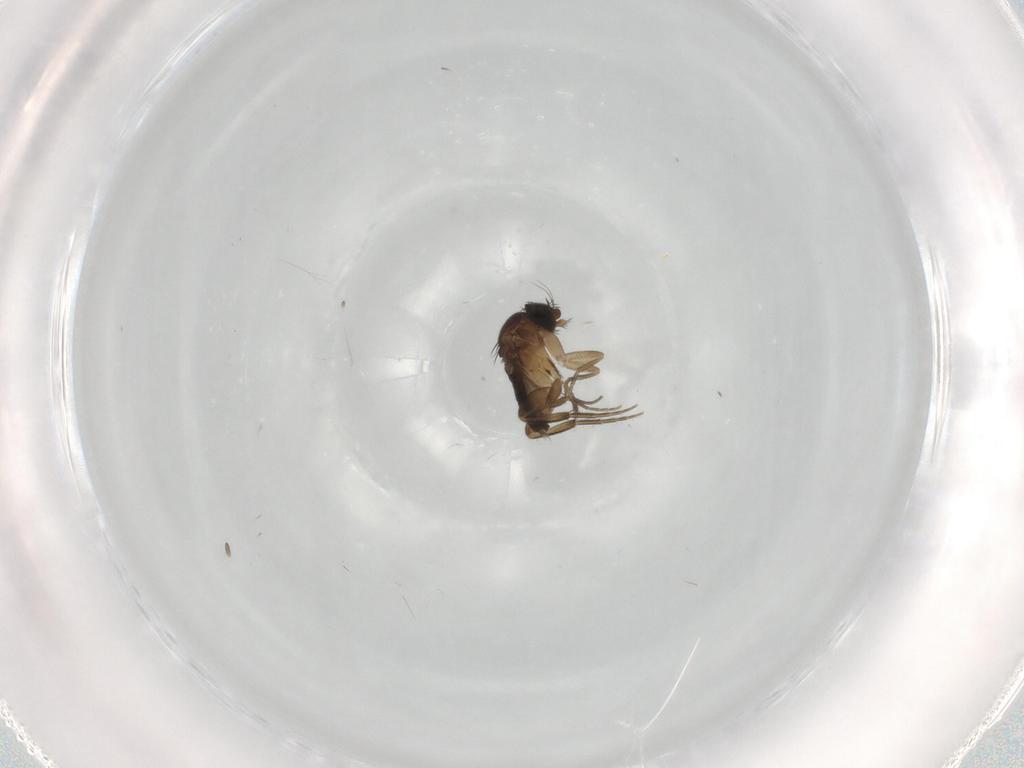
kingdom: Animalia
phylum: Arthropoda
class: Insecta
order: Diptera
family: Phoridae
